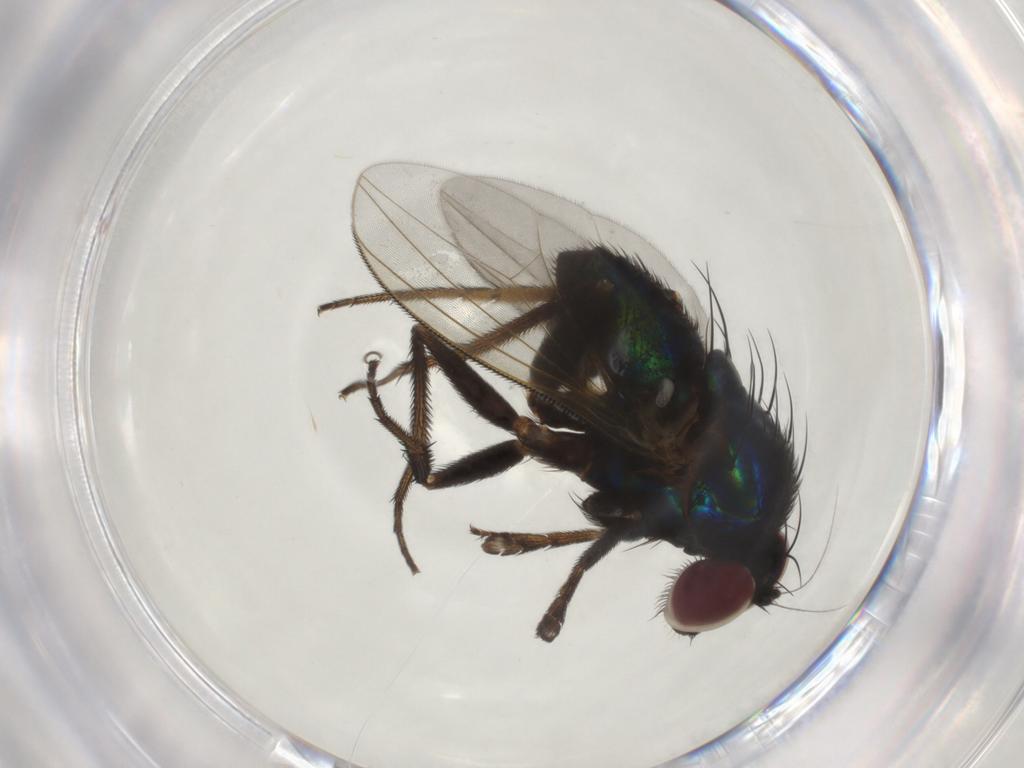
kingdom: Animalia
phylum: Arthropoda
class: Insecta
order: Diptera
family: Dolichopodidae
